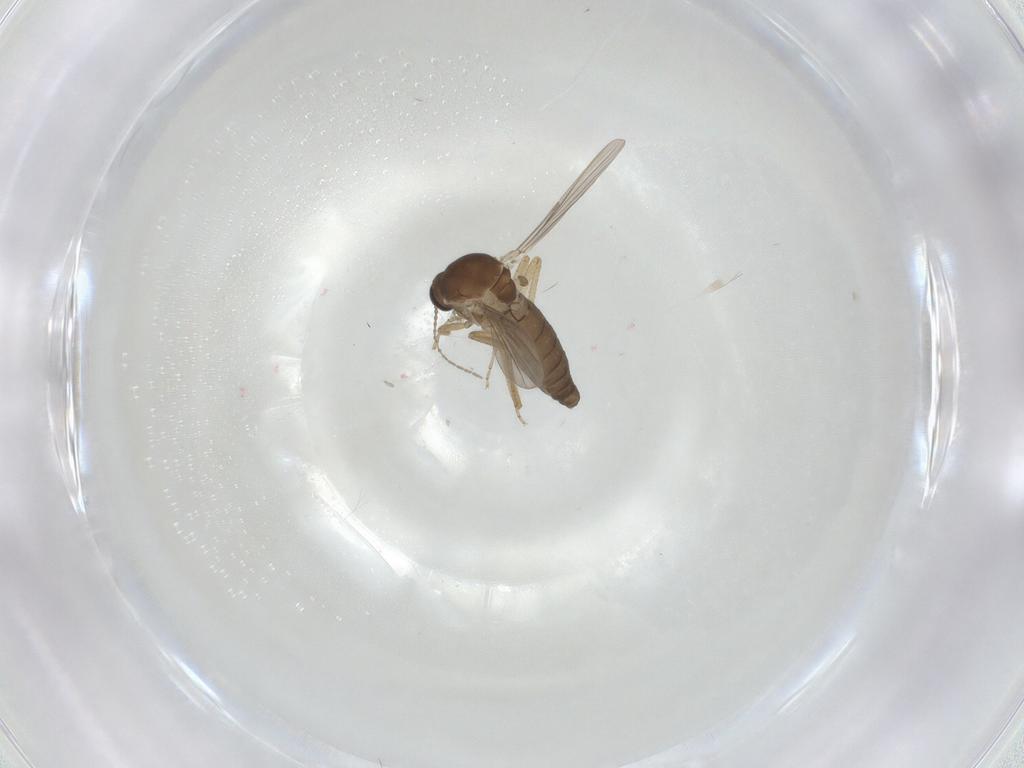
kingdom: Animalia
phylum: Arthropoda
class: Insecta
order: Diptera
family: Ceratopogonidae
